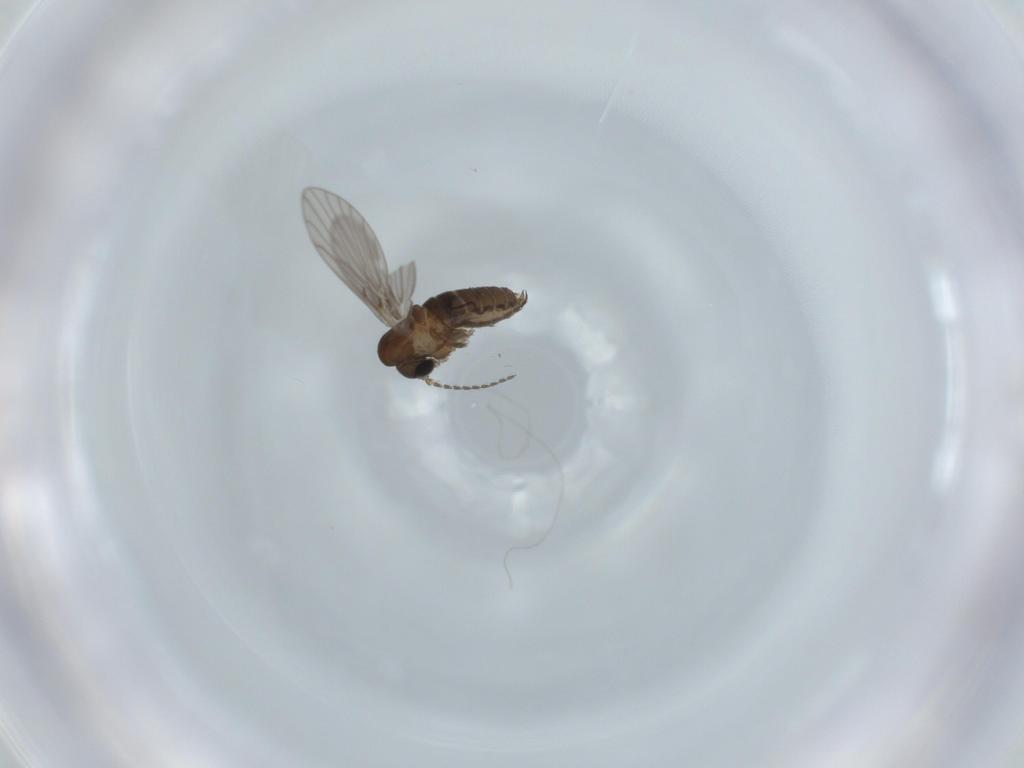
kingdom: Animalia
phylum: Arthropoda
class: Insecta
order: Diptera
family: Psychodidae
